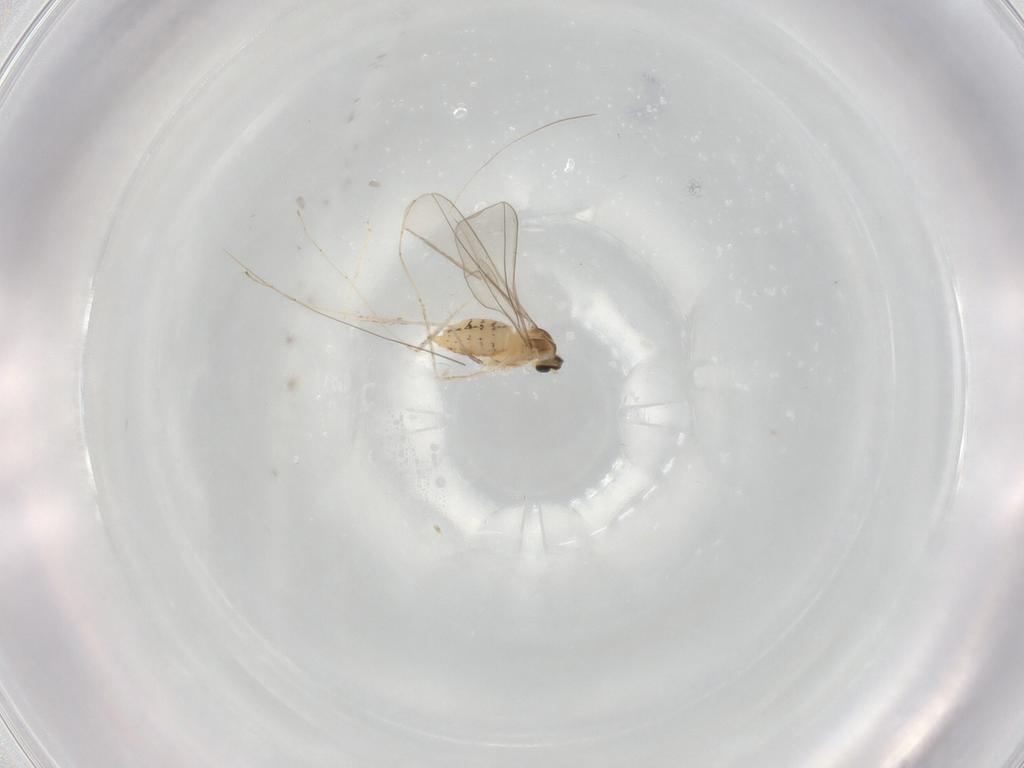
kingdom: Animalia
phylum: Arthropoda
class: Insecta
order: Diptera
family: Cecidomyiidae
